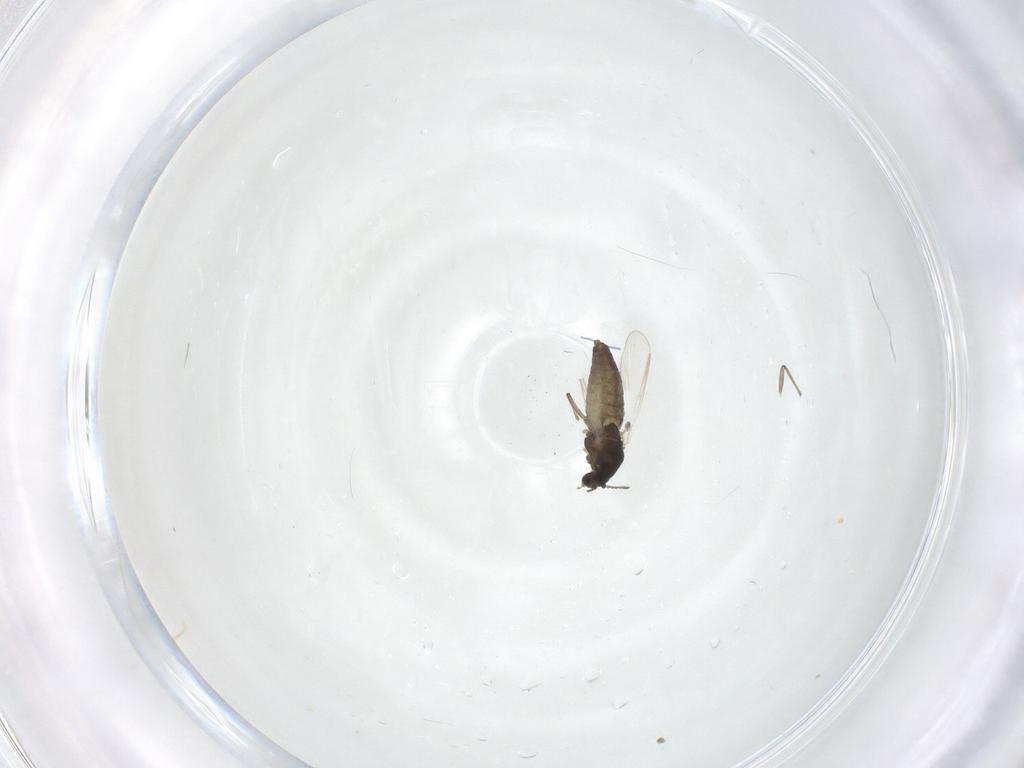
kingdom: Animalia
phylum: Arthropoda
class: Insecta
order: Diptera
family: Chironomidae
